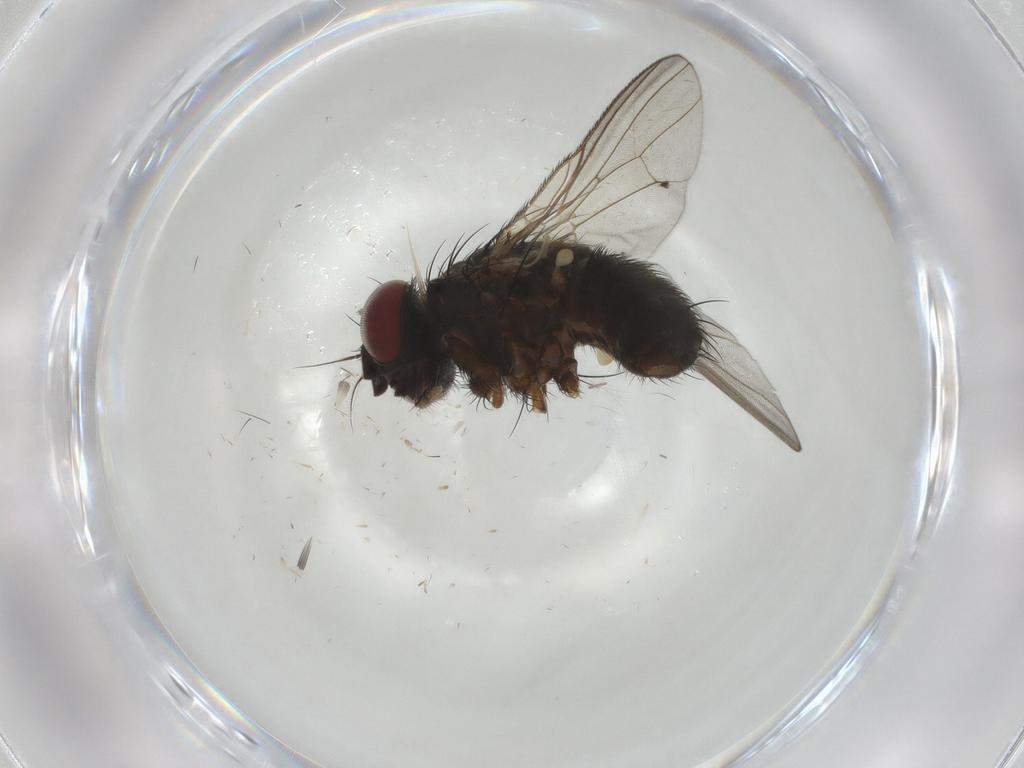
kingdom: Animalia
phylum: Arthropoda
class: Insecta
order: Diptera
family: Muscidae
